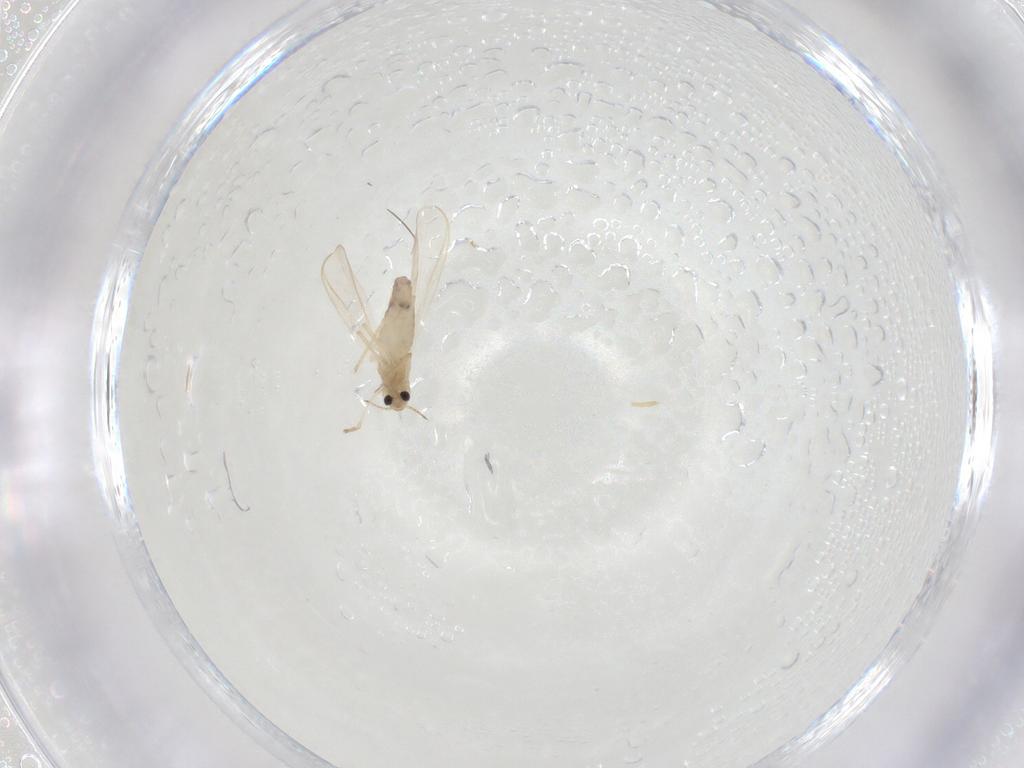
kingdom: Animalia
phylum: Arthropoda
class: Insecta
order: Diptera
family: Chironomidae
